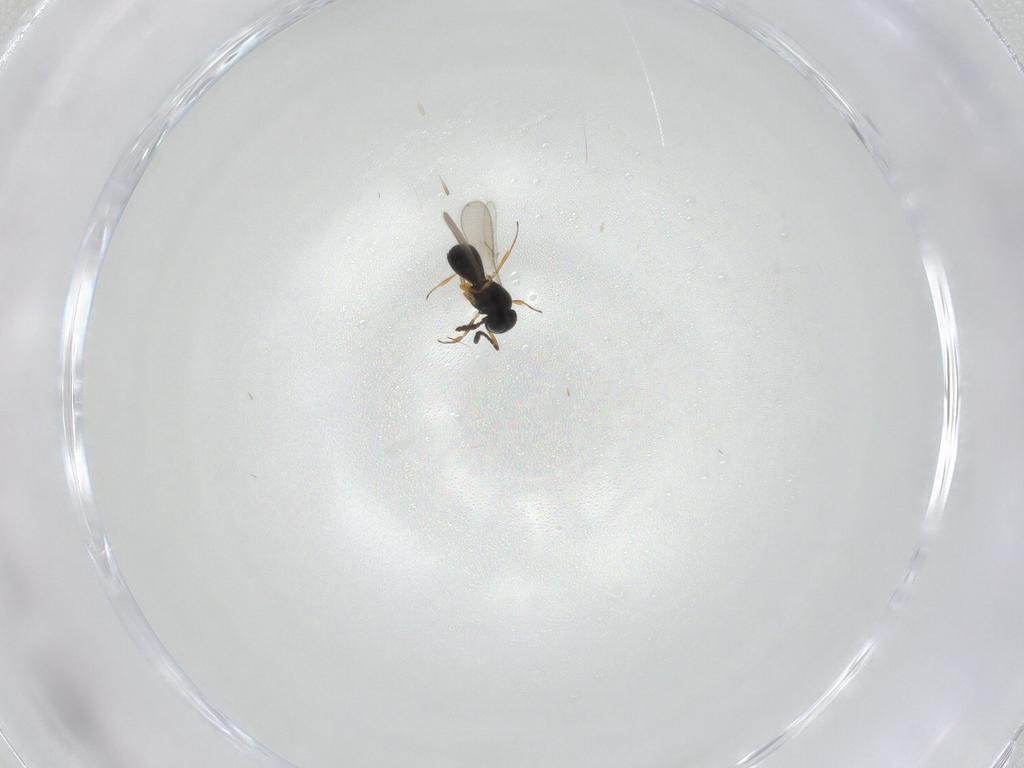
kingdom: Animalia
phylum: Arthropoda
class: Insecta
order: Hymenoptera
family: Scelionidae
